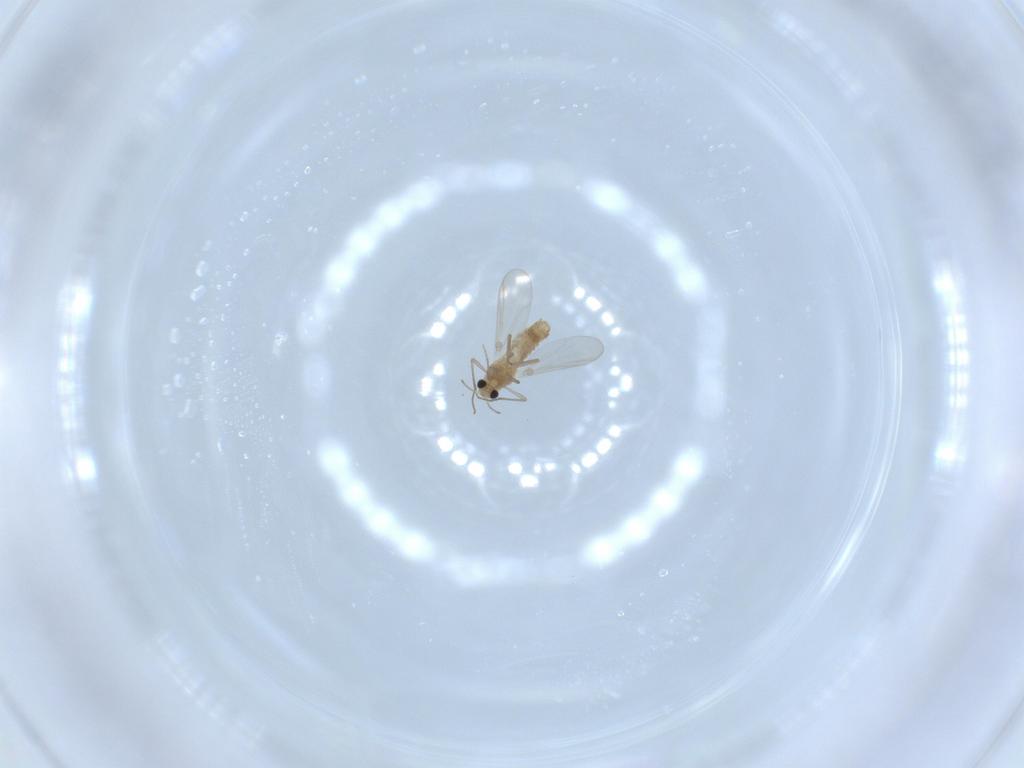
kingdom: Animalia
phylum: Arthropoda
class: Insecta
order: Diptera
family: Chironomidae
